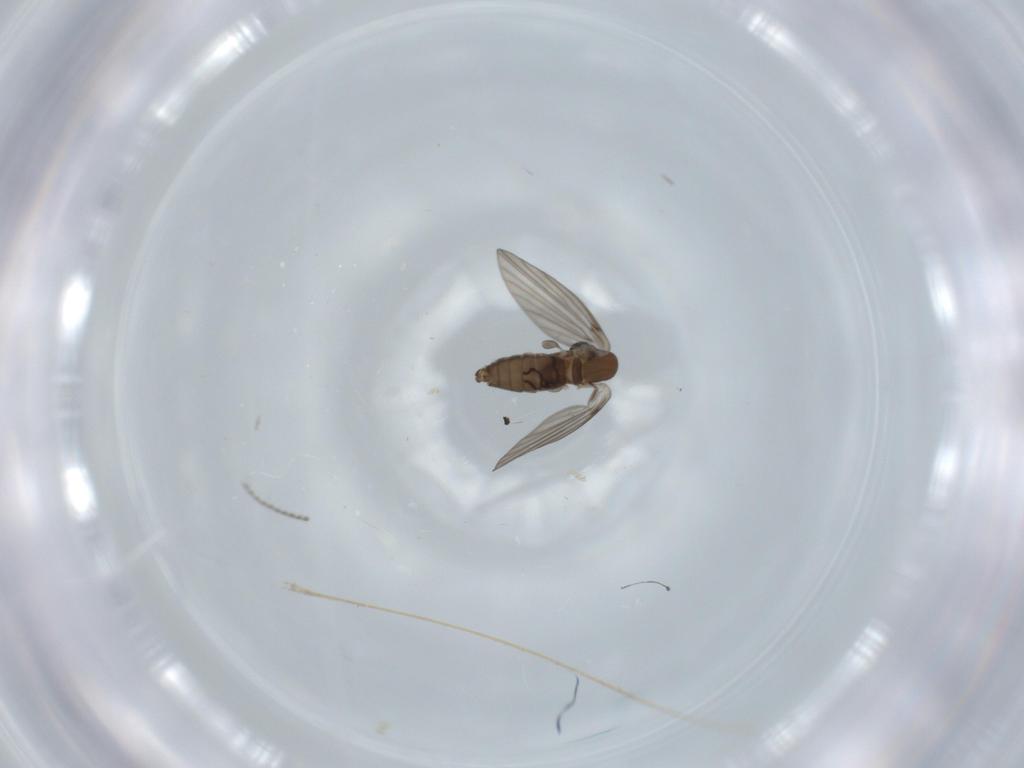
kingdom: Animalia
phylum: Arthropoda
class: Insecta
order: Diptera
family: Psychodidae
